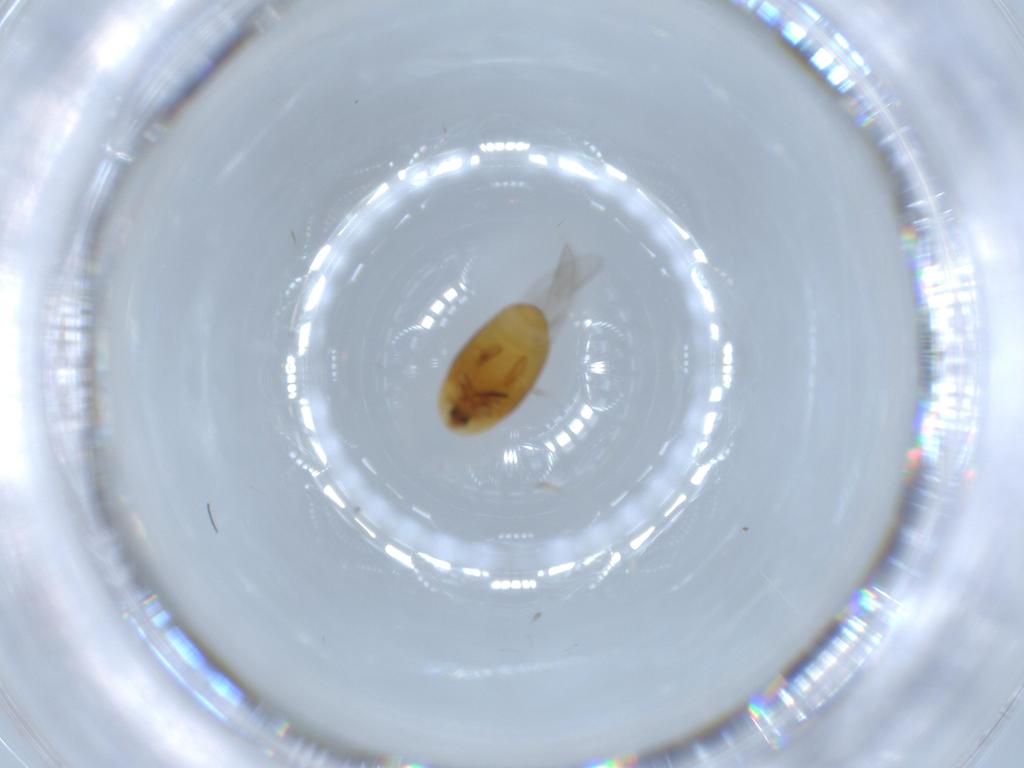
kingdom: Animalia
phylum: Arthropoda
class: Insecta
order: Coleoptera
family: Corylophidae
